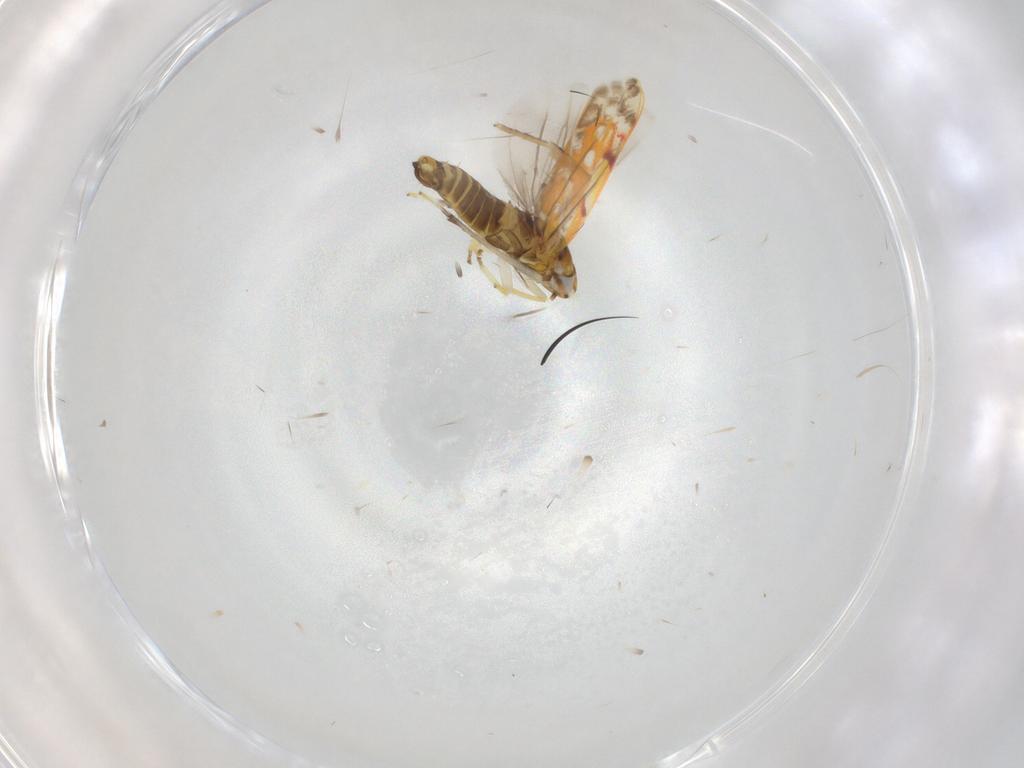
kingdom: Animalia
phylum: Arthropoda
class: Insecta
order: Hemiptera
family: Cicadellidae
